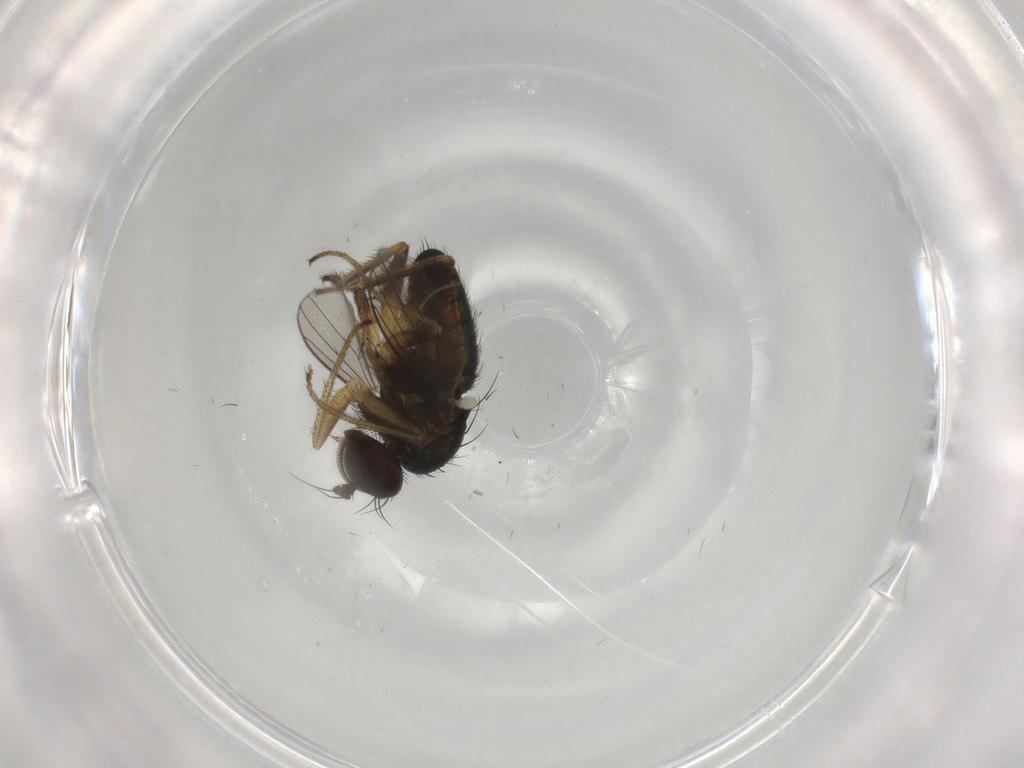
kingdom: Animalia
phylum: Arthropoda
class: Insecta
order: Diptera
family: Dolichopodidae
